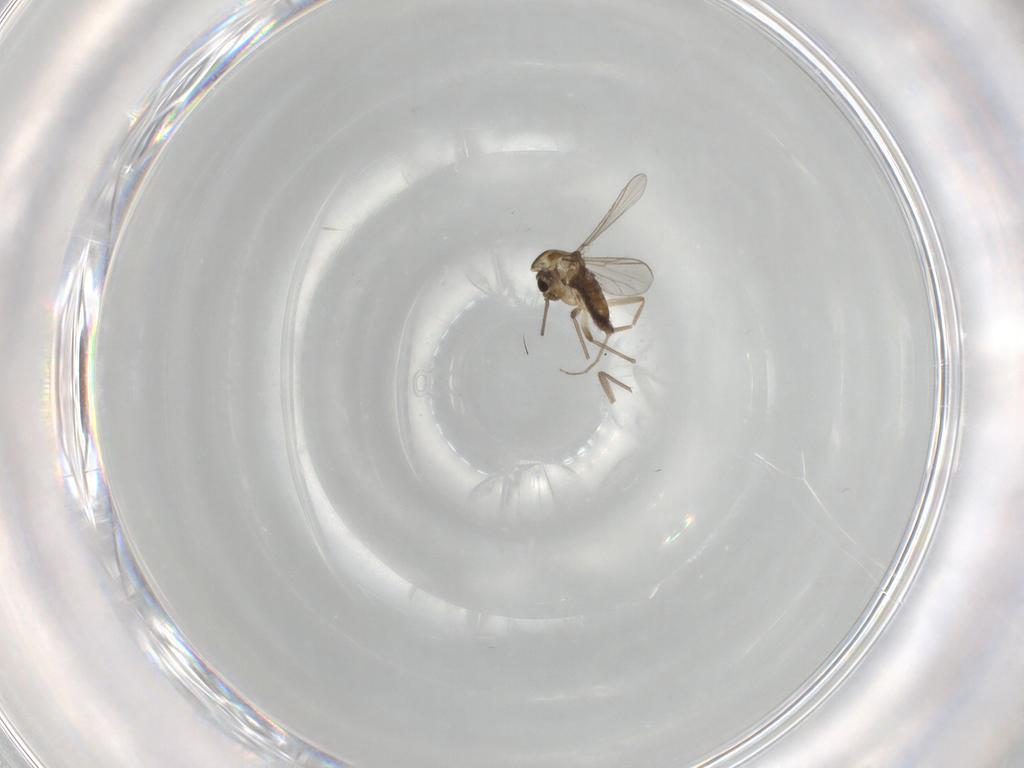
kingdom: Animalia
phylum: Arthropoda
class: Insecta
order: Diptera
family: Chironomidae
